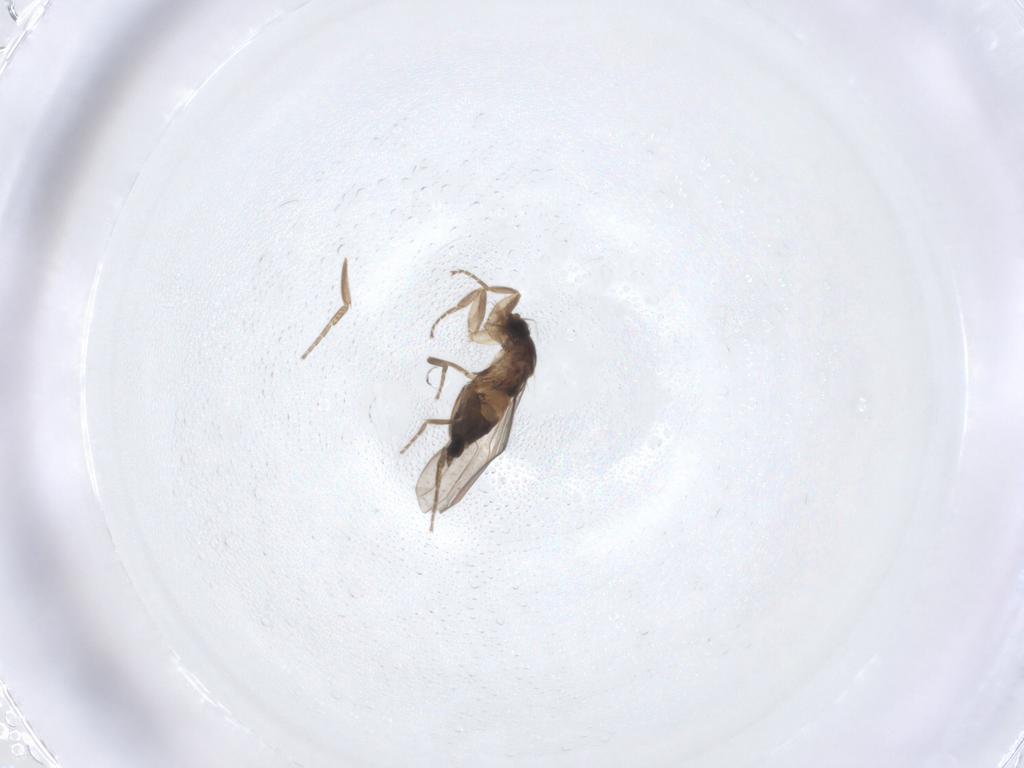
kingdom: Animalia
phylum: Arthropoda
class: Insecta
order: Diptera
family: Phoridae
